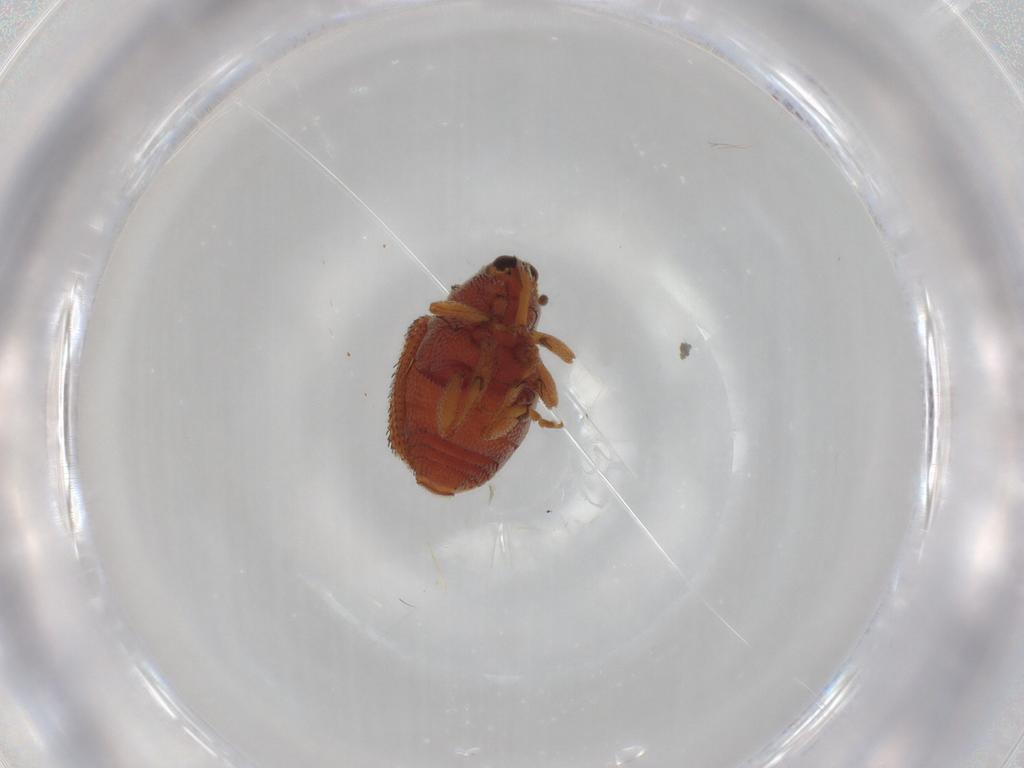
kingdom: Animalia
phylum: Arthropoda
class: Insecta
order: Coleoptera
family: Curculionidae
